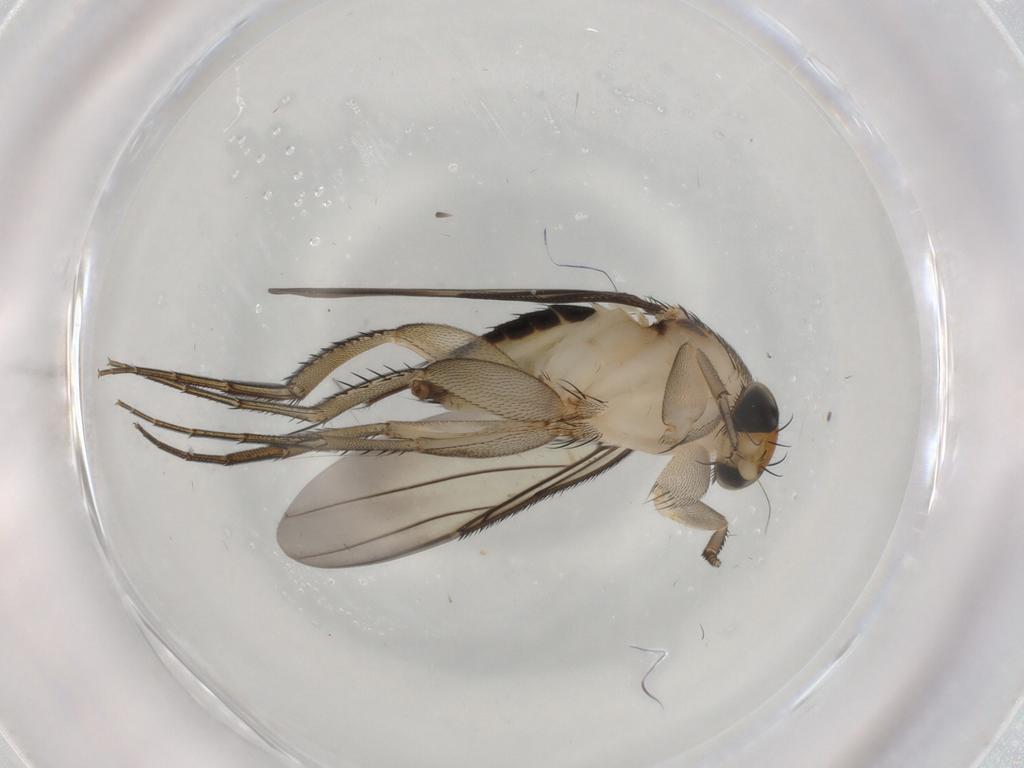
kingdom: Animalia
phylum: Arthropoda
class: Insecta
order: Diptera
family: Phoridae
